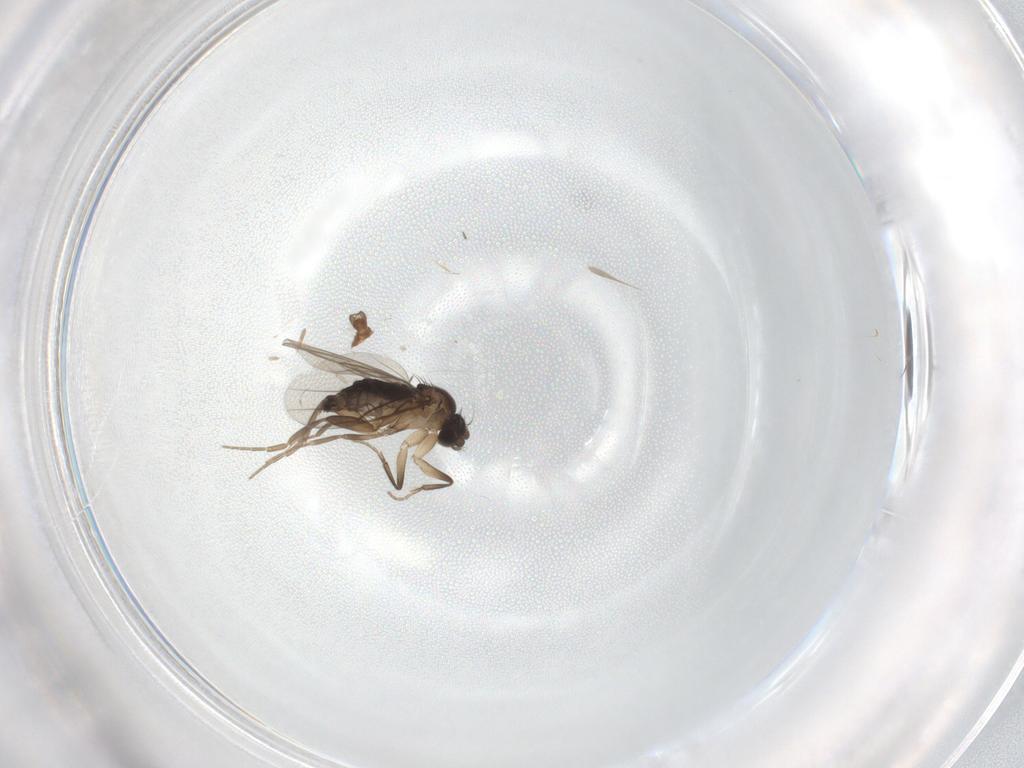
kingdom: Animalia
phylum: Arthropoda
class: Insecta
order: Diptera
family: Ceratopogonidae
